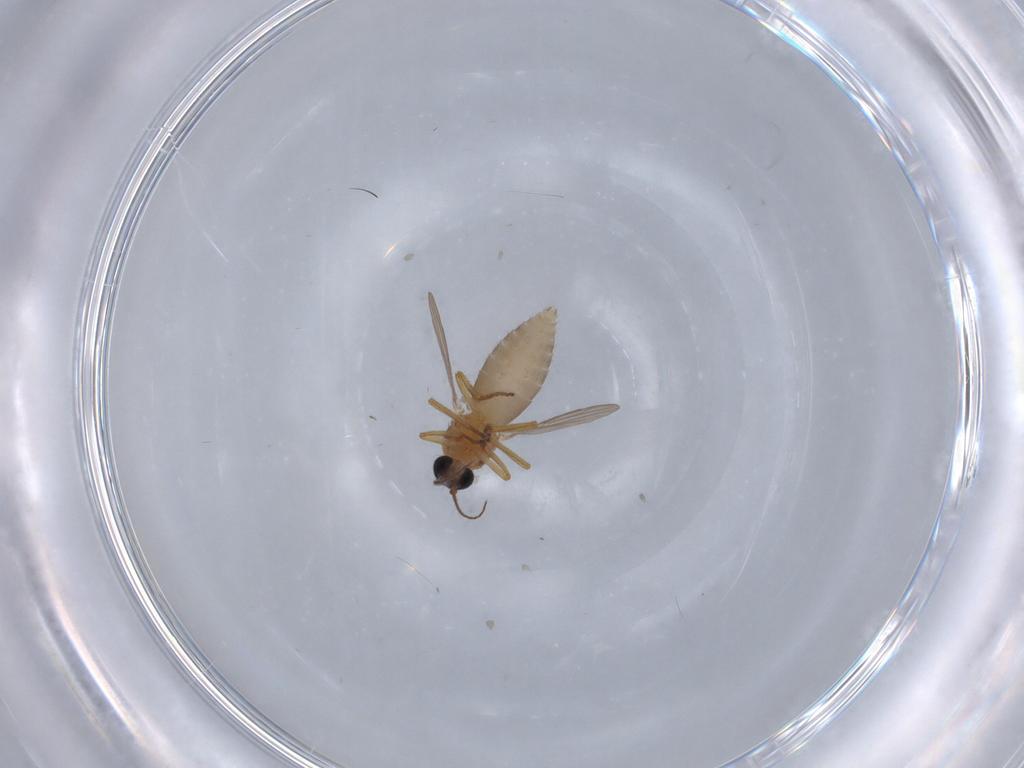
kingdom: Animalia
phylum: Arthropoda
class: Insecta
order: Diptera
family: Ceratopogonidae
